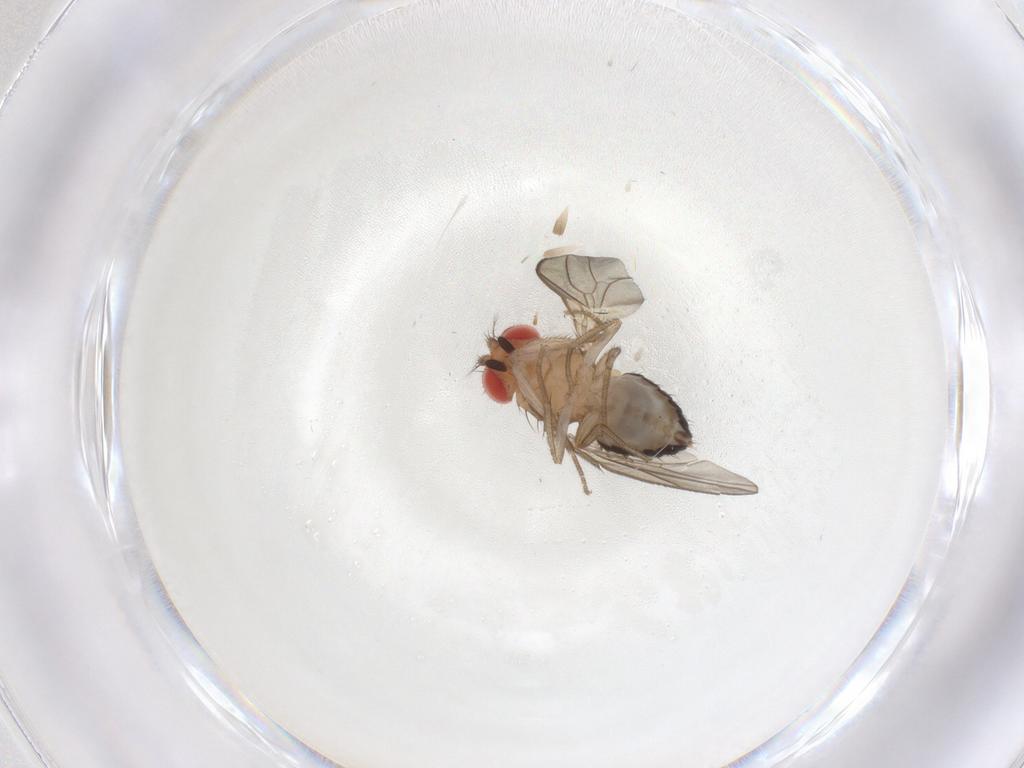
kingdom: Animalia
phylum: Arthropoda
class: Insecta
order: Diptera
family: Drosophilidae
